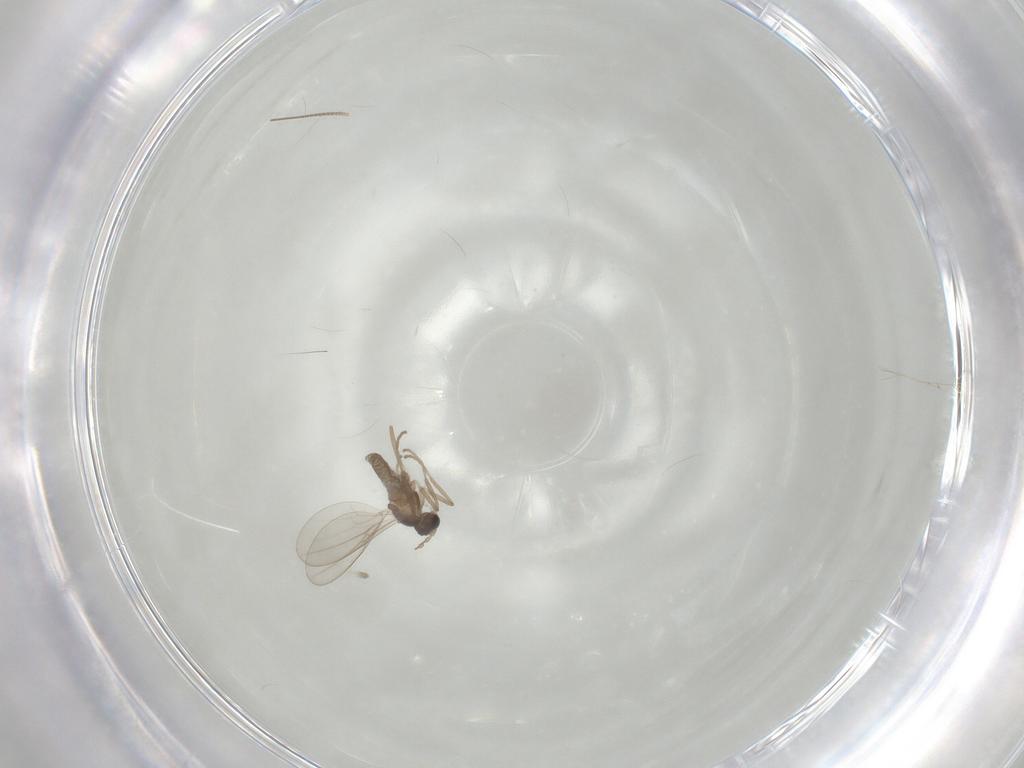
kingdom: Animalia
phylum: Arthropoda
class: Insecta
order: Diptera
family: Cecidomyiidae
